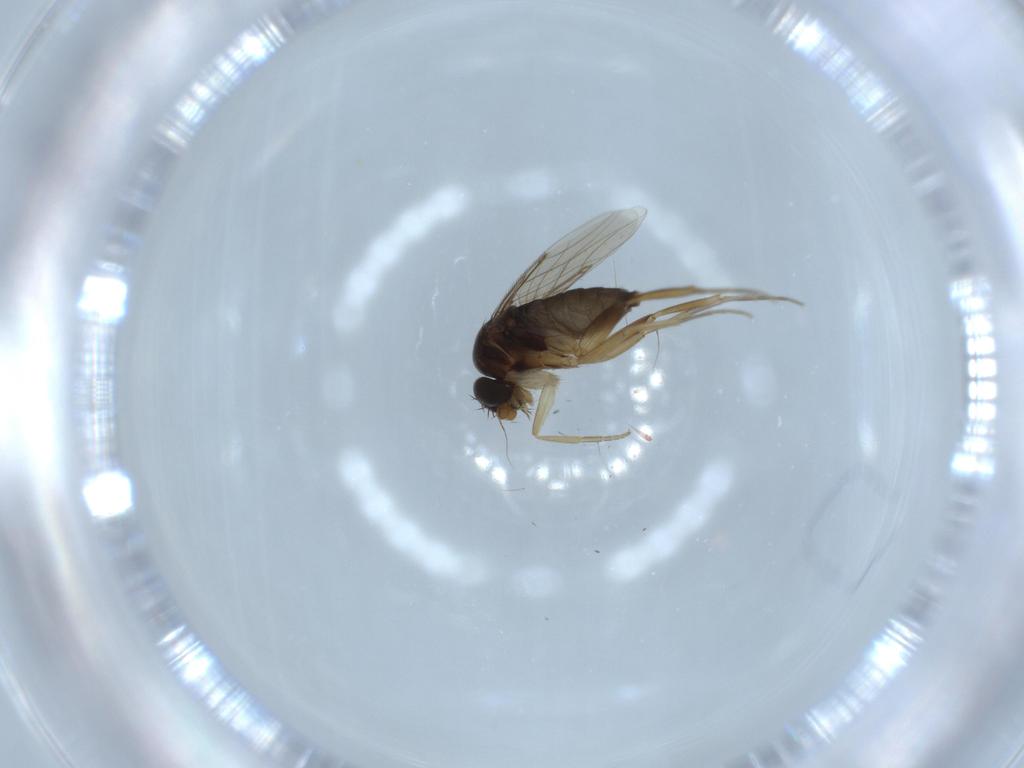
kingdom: Animalia
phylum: Arthropoda
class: Insecta
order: Diptera
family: Phoridae
